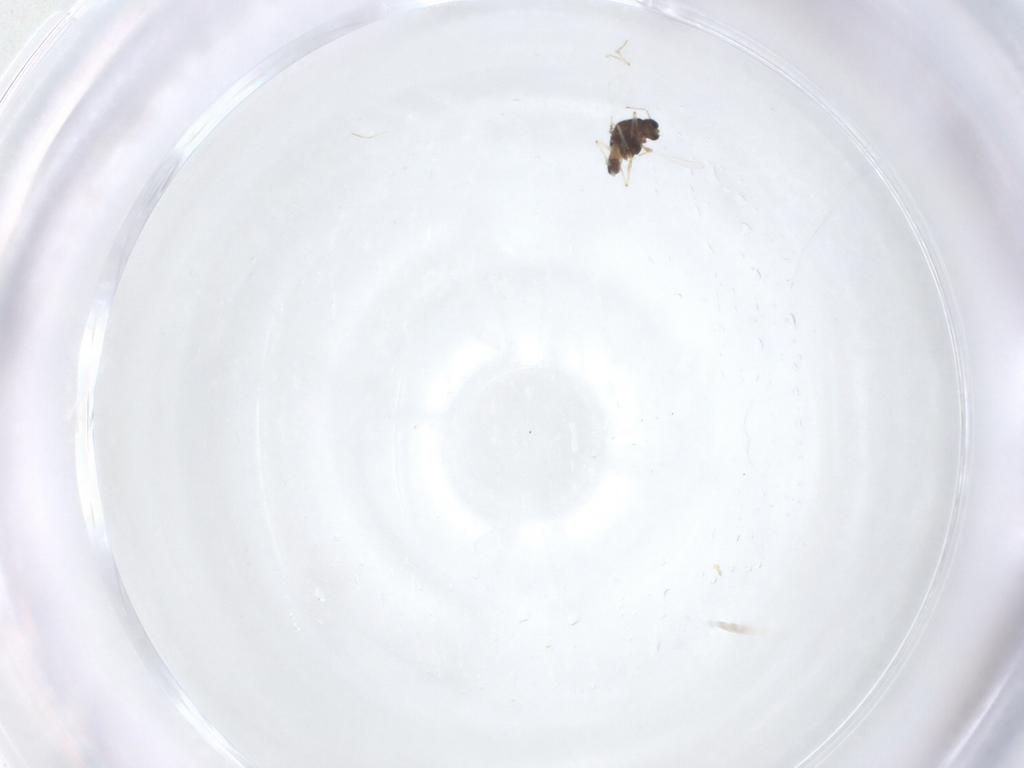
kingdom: Animalia
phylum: Arthropoda
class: Insecta
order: Diptera
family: Chironomidae
